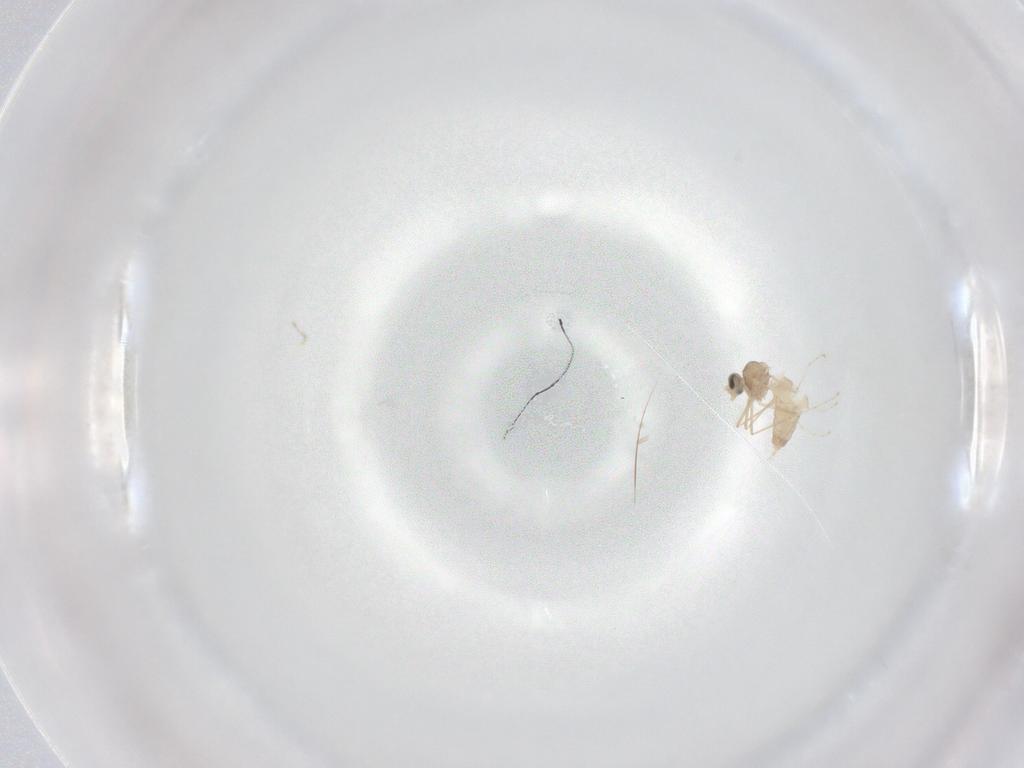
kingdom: Animalia
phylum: Arthropoda
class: Insecta
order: Diptera
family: Cecidomyiidae
